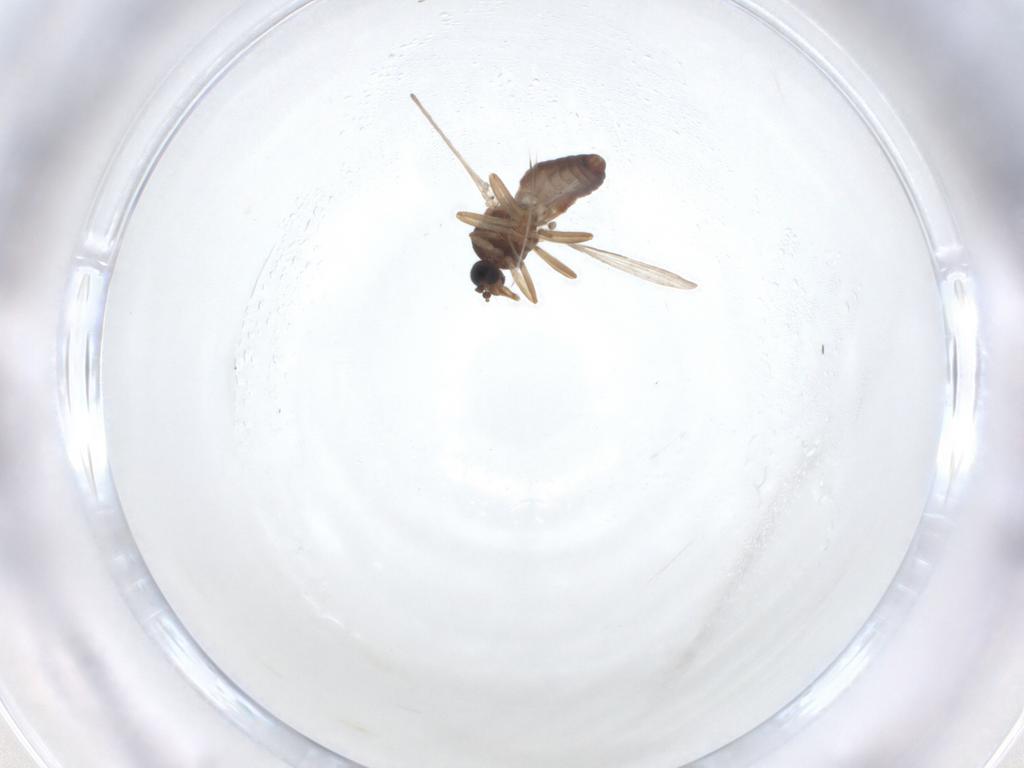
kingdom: Animalia
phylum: Arthropoda
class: Insecta
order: Diptera
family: Ceratopogonidae
